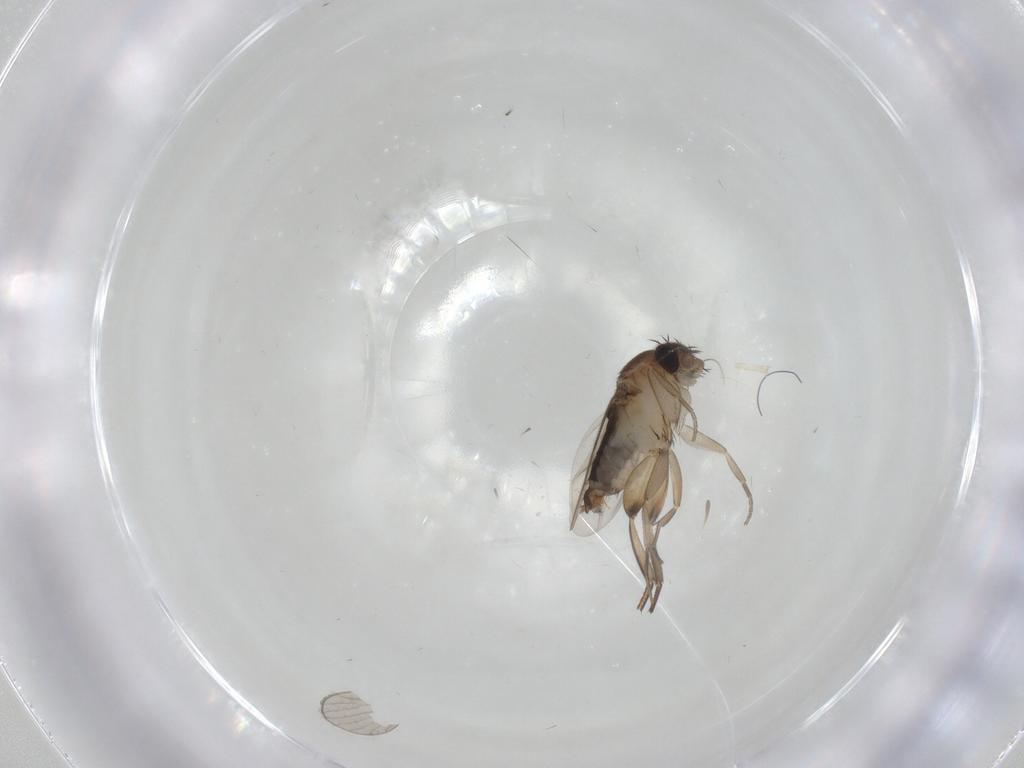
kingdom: Animalia
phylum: Arthropoda
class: Insecta
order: Diptera
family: Phoridae
